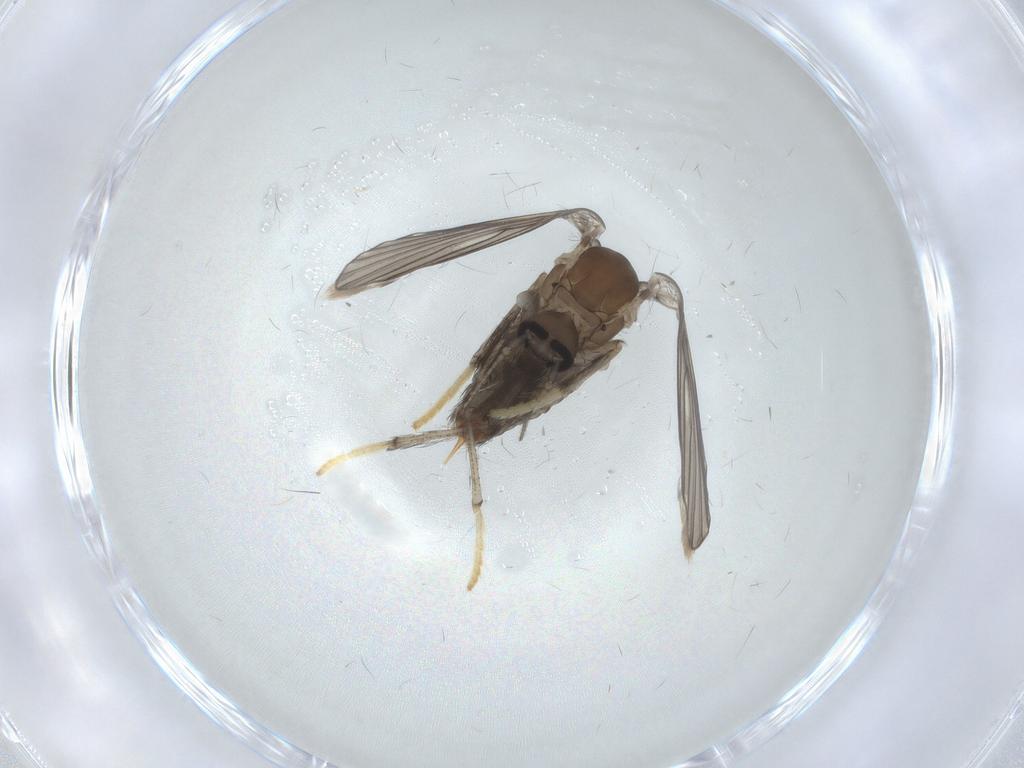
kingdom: Animalia
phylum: Arthropoda
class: Insecta
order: Diptera
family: Psychodidae
